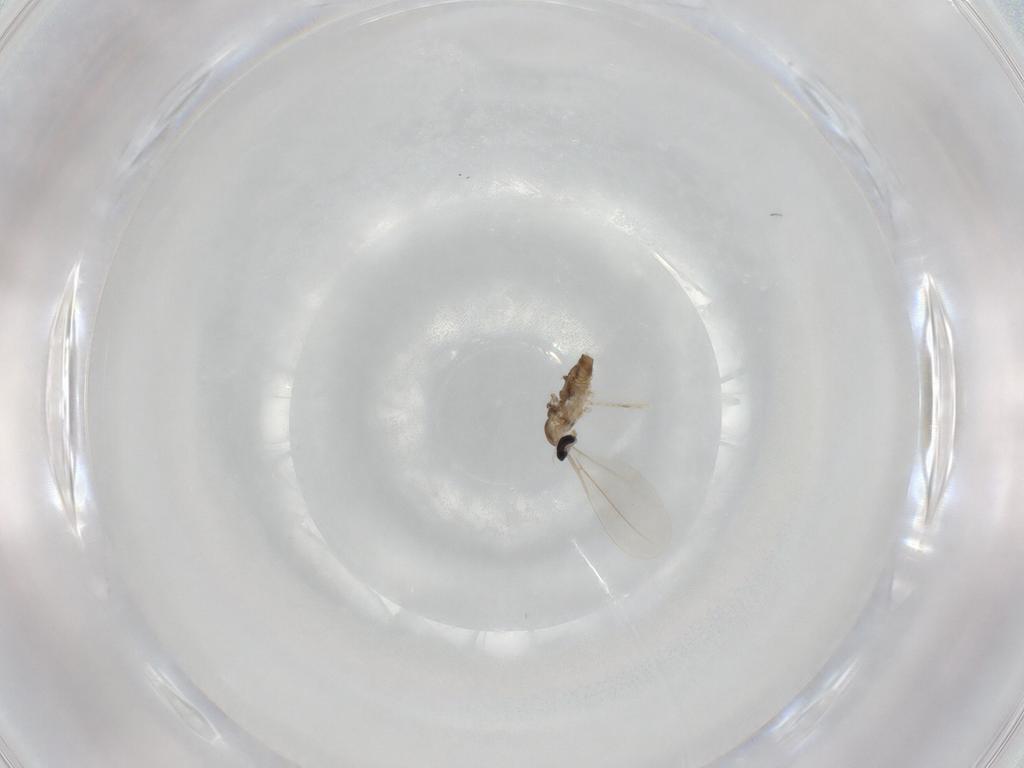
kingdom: Animalia
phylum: Arthropoda
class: Insecta
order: Diptera
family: Cecidomyiidae
